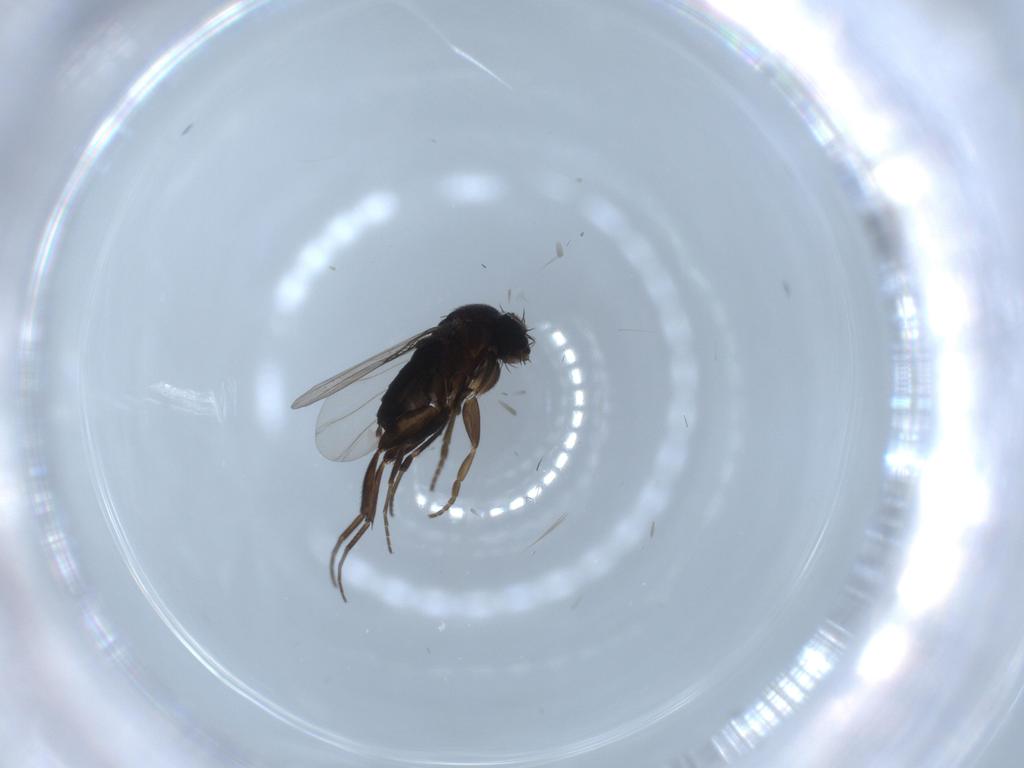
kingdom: Animalia
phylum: Arthropoda
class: Insecta
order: Diptera
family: Phoridae
